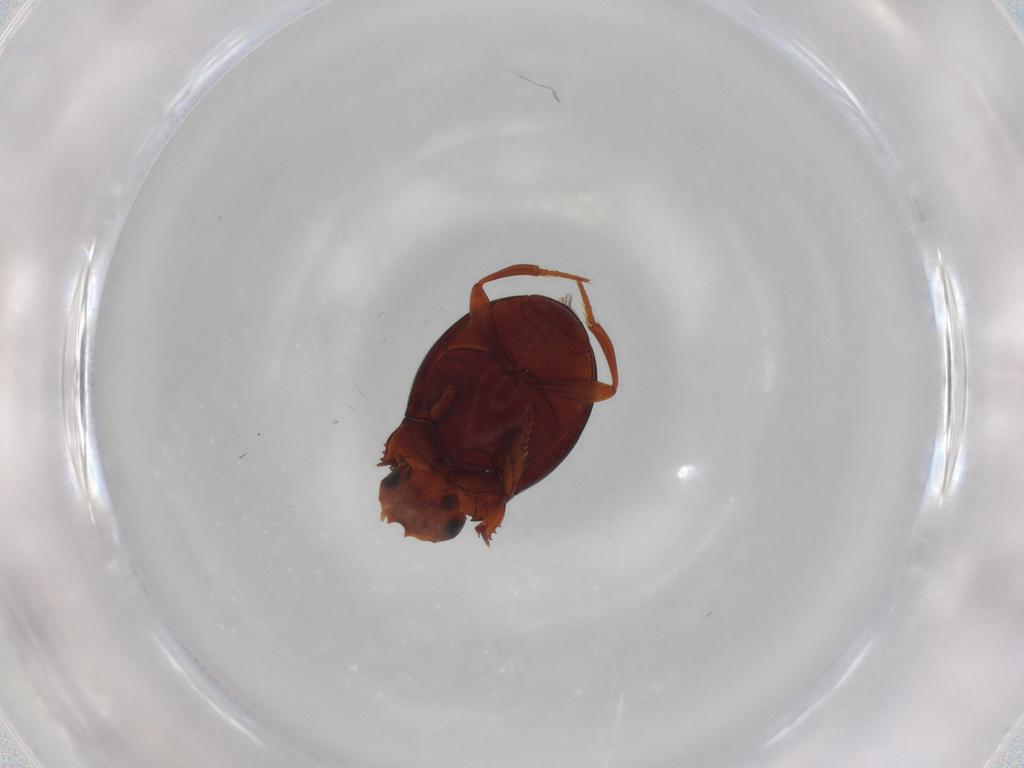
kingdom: Animalia
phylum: Arthropoda
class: Insecta
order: Coleoptera
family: Scarabaeidae
